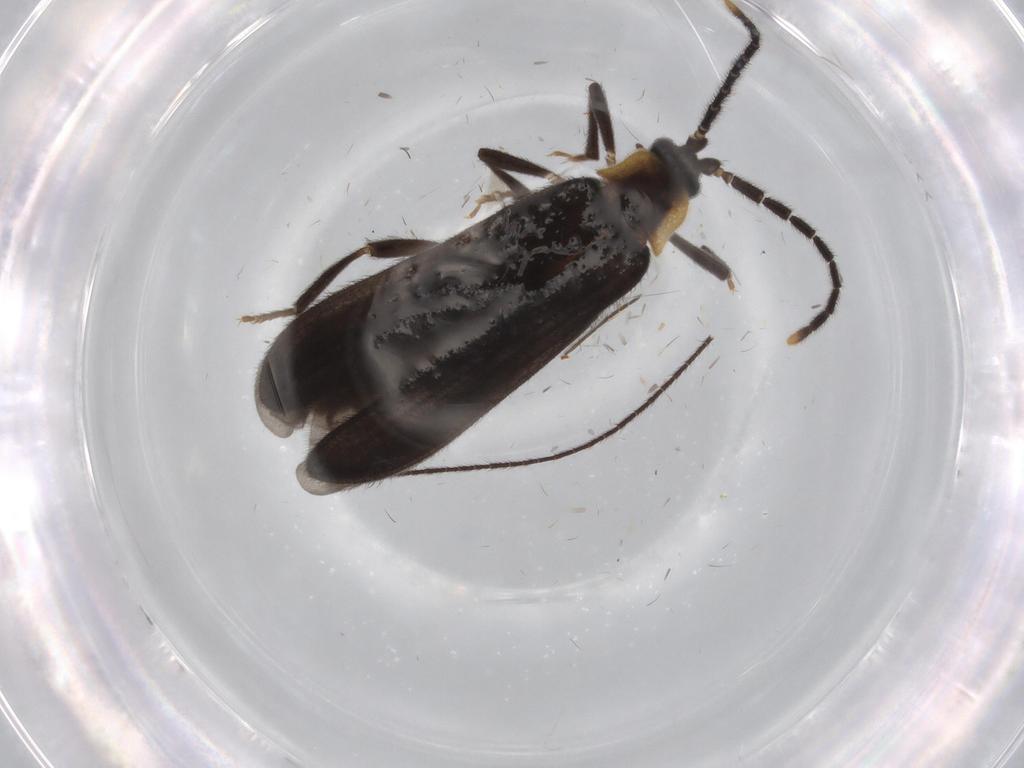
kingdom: Animalia
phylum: Arthropoda
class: Insecta
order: Coleoptera
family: Lycidae
